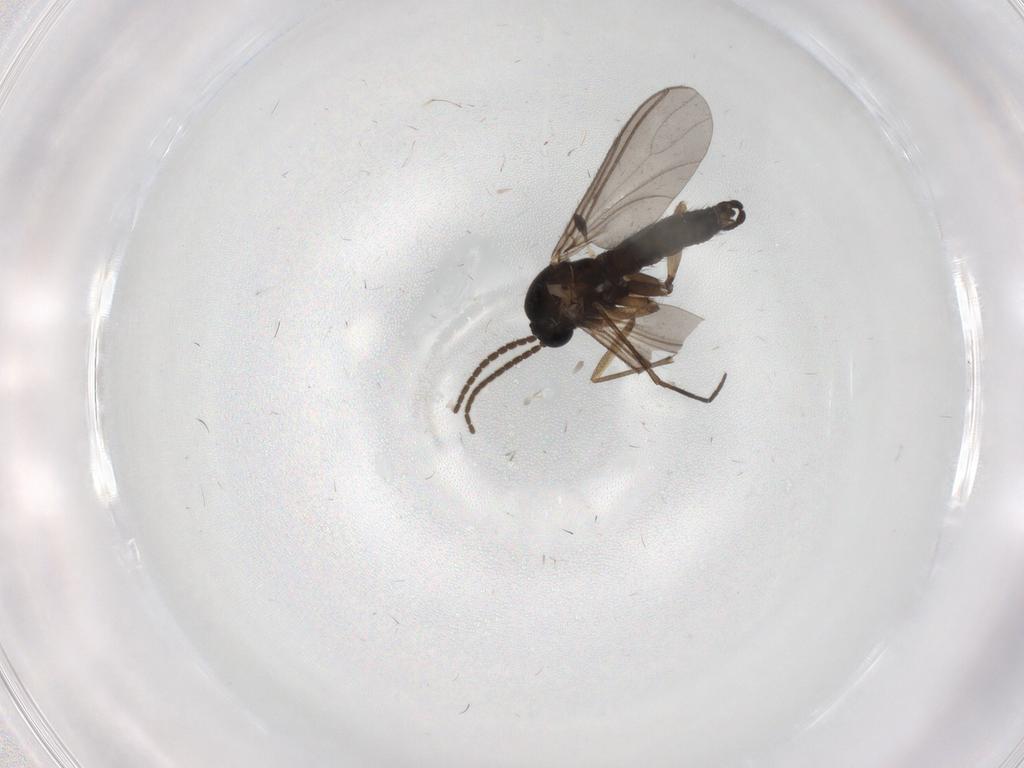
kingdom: Animalia
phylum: Arthropoda
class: Insecta
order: Diptera
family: Sciaridae
